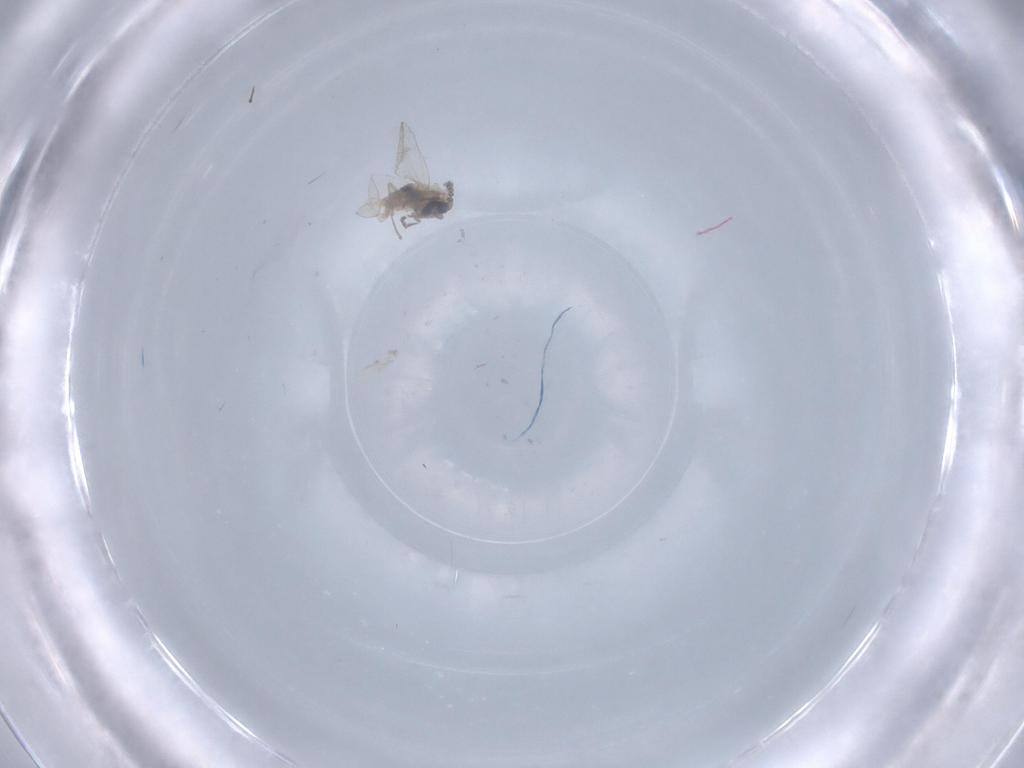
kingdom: Animalia
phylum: Arthropoda
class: Insecta
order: Diptera
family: Psychodidae
